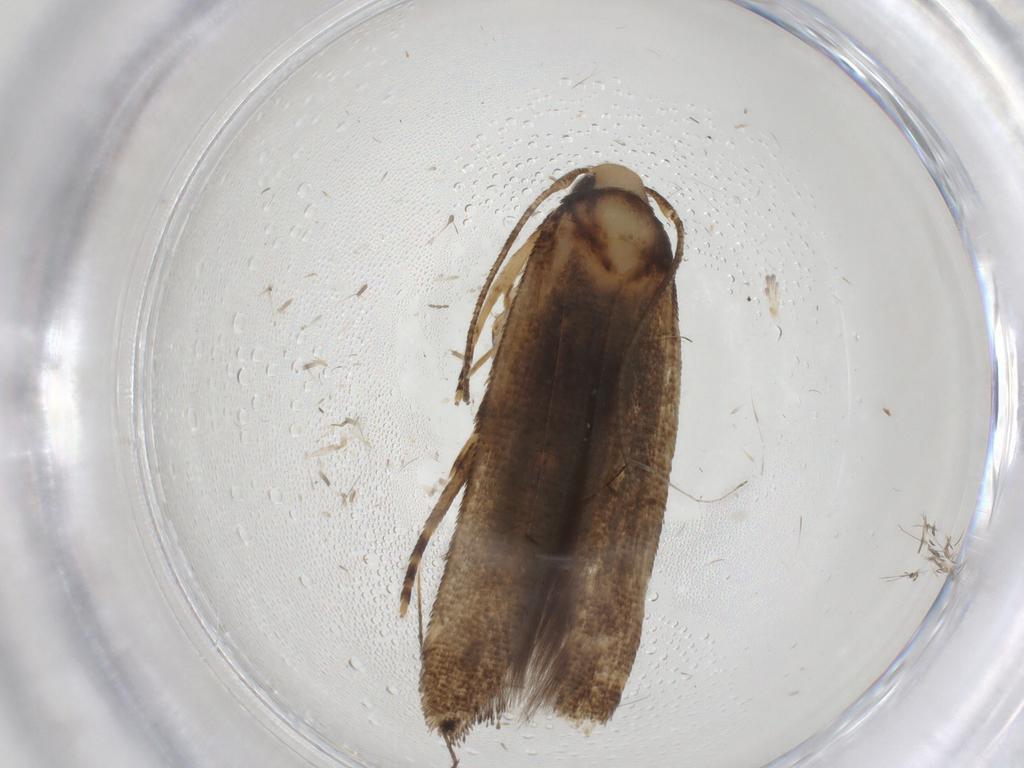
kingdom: Animalia
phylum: Arthropoda
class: Insecta
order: Lepidoptera
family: Cosmopterigidae
